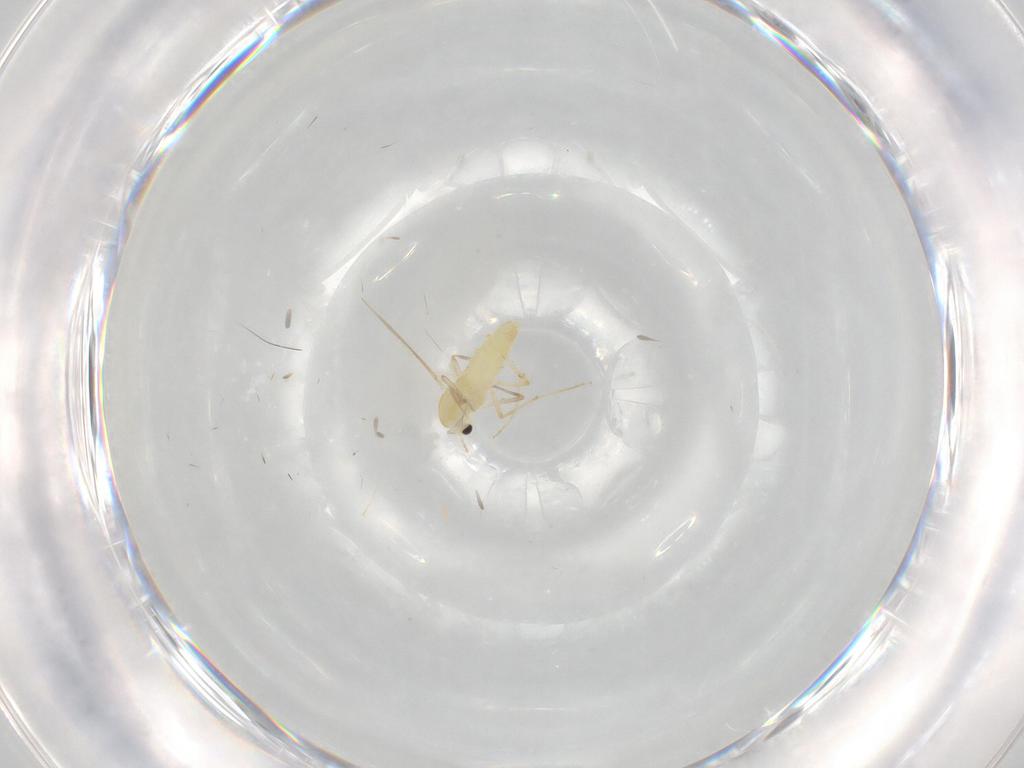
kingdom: Animalia
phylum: Arthropoda
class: Insecta
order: Diptera
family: Chironomidae
